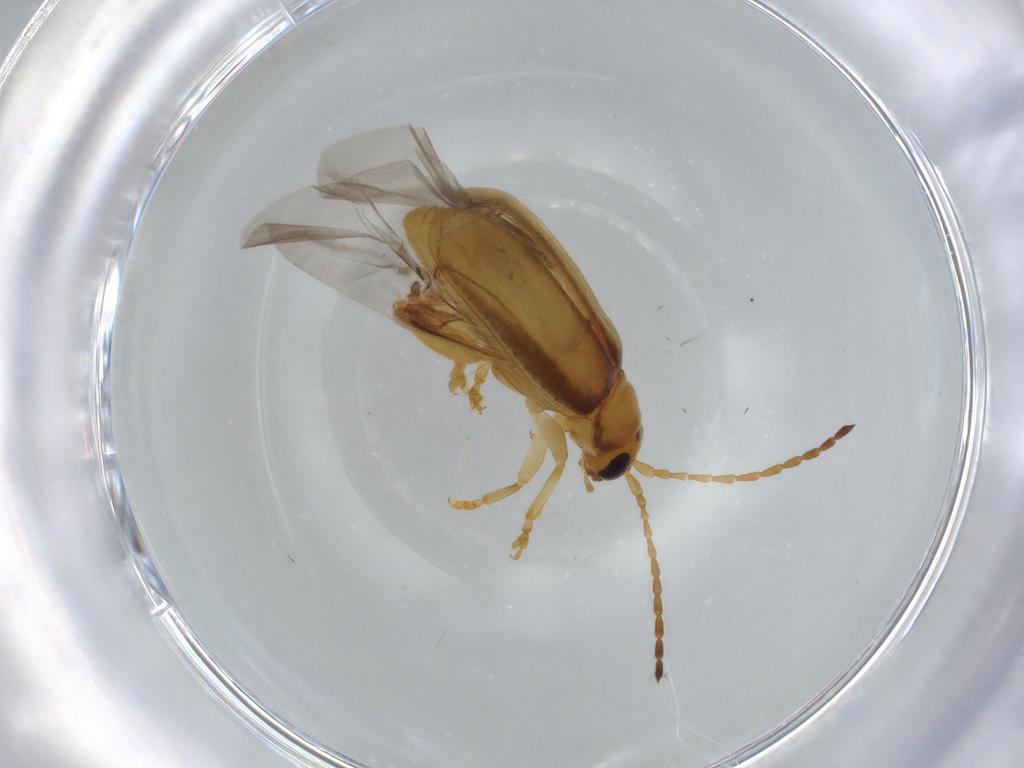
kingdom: Animalia
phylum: Arthropoda
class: Insecta
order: Coleoptera
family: Chrysomelidae
